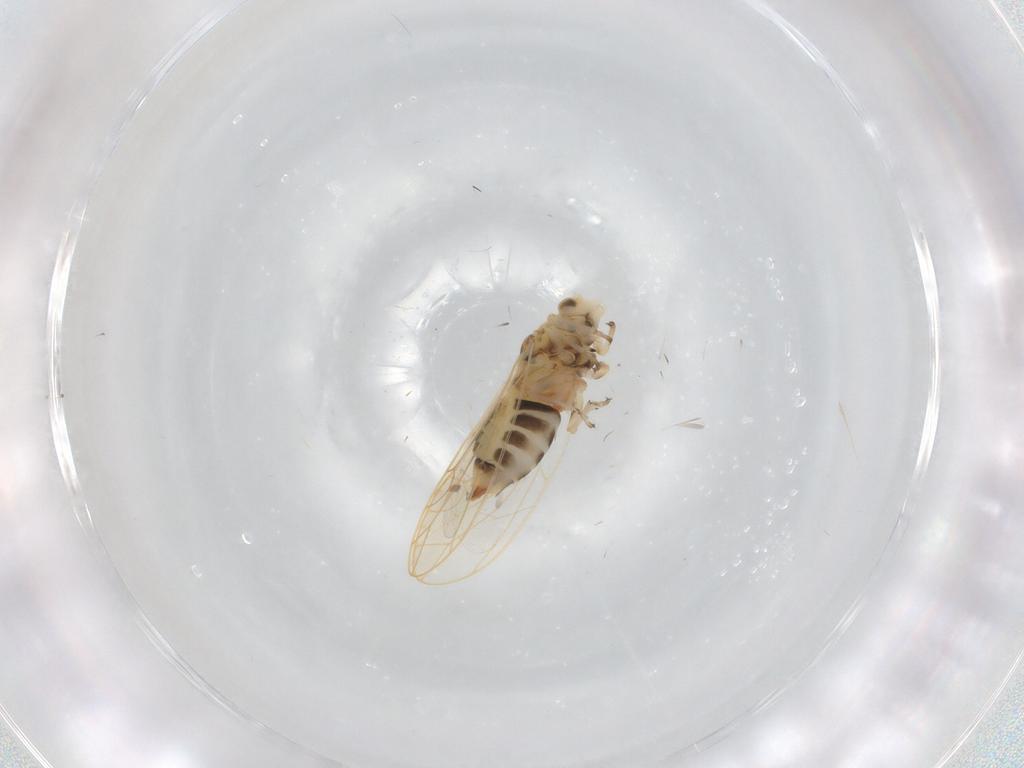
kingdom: Animalia
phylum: Arthropoda
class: Insecta
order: Hemiptera
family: Coccoidea_incertae_sedis
